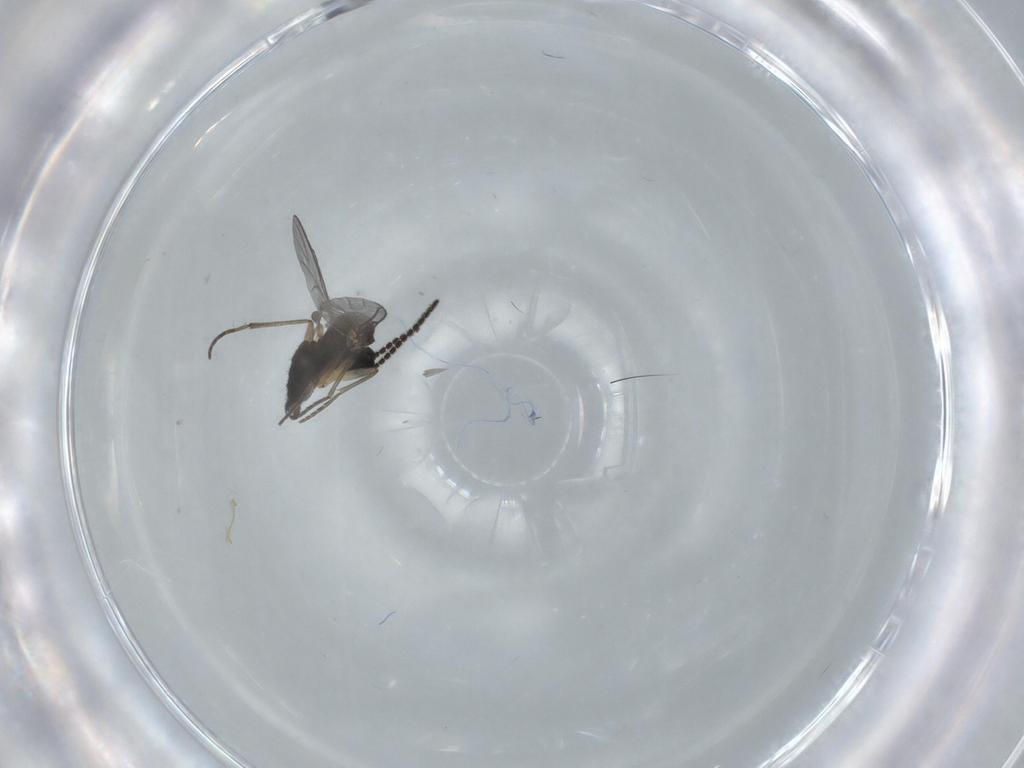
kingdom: Animalia
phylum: Arthropoda
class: Insecta
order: Diptera
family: Sciaridae
